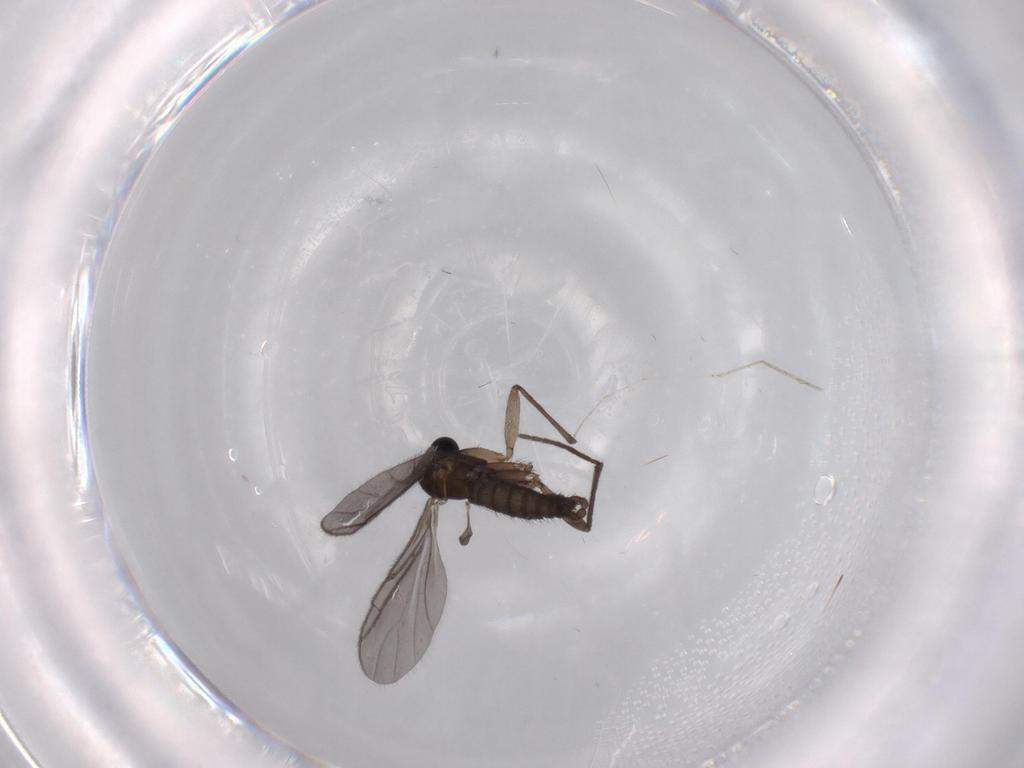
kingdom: Animalia
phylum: Arthropoda
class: Insecta
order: Diptera
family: Sciaridae
